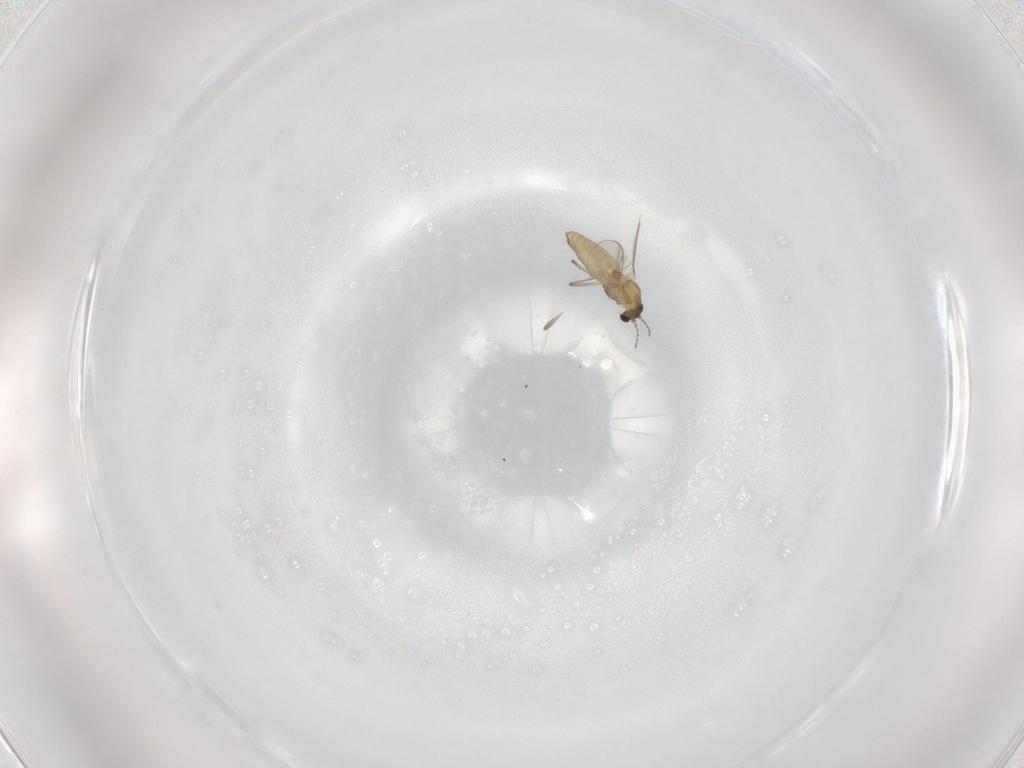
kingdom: Animalia
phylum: Arthropoda
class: Insecta
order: Diptera
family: Chironomidae
